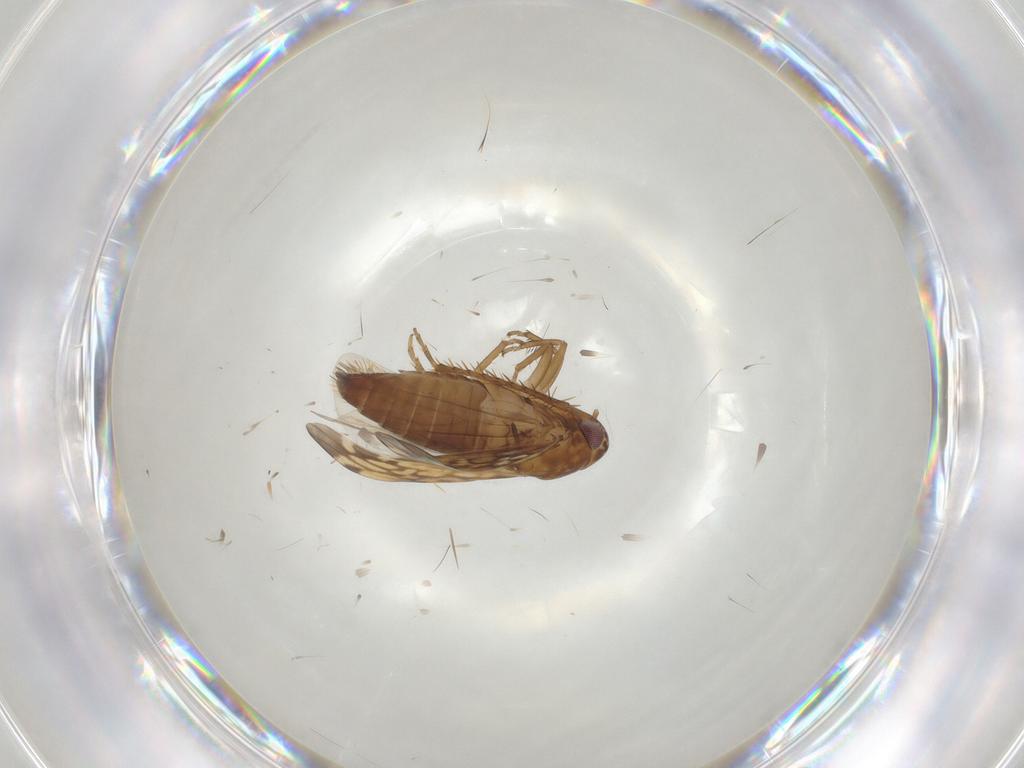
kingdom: Animalia
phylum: Arthropoda
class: Insecta
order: Hemiptera
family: Cicadellidae
